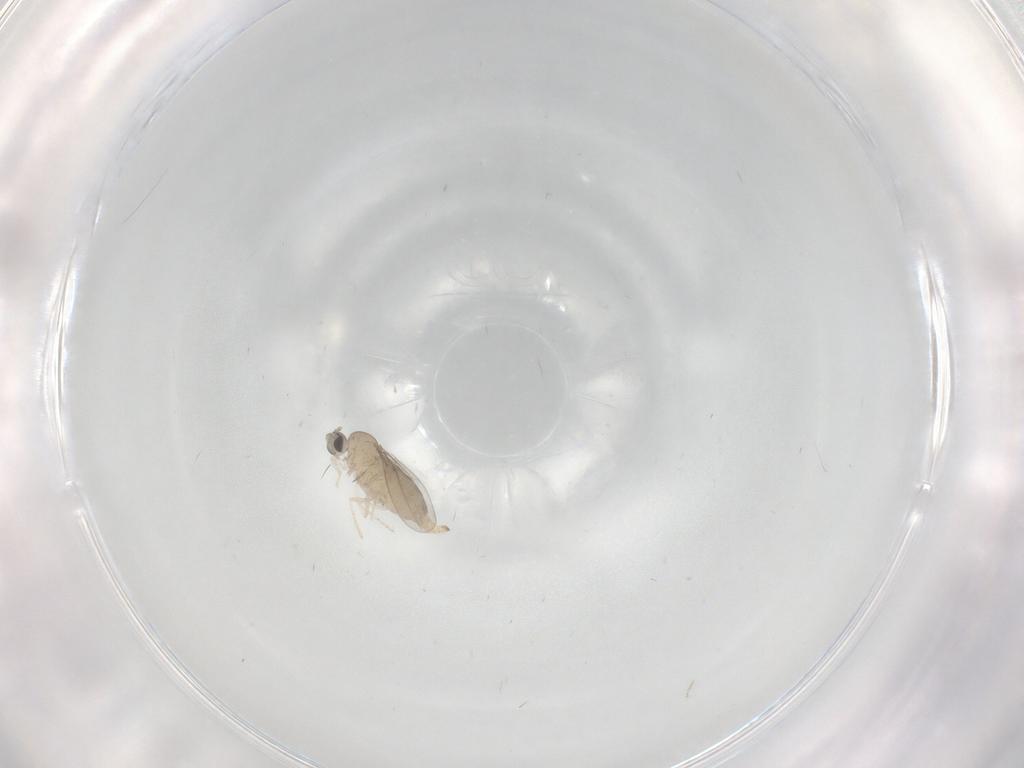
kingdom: Animalia
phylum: Arthropoda
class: Insecta
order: Diptera
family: Cecidomyiidae
